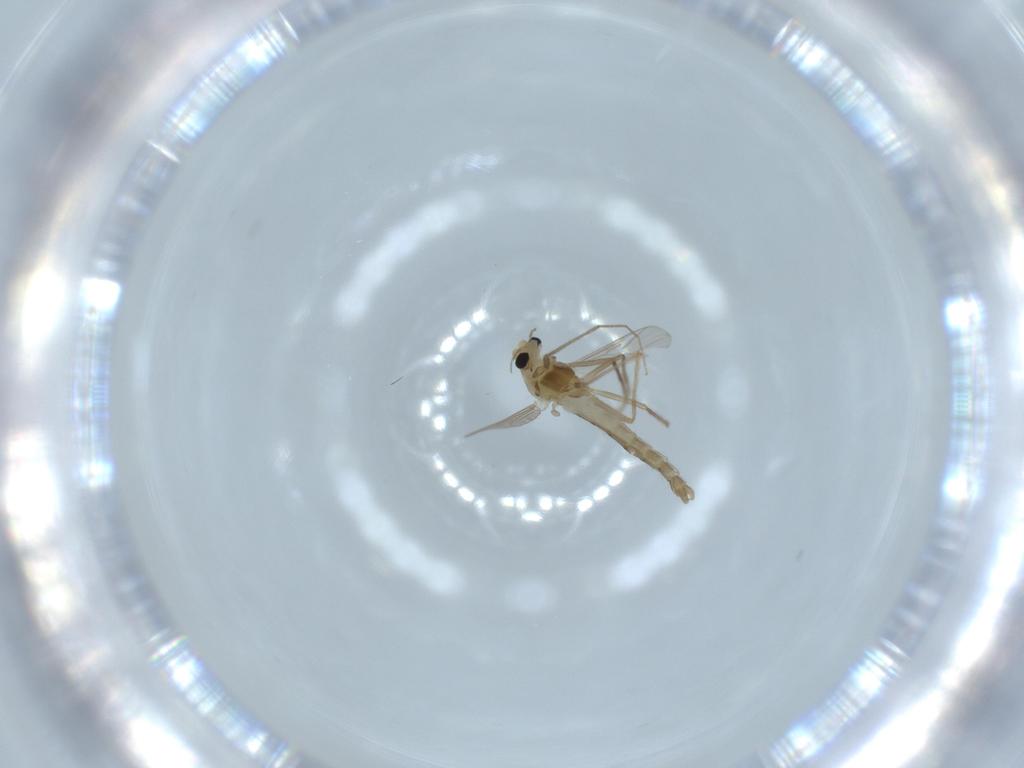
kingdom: Animalia
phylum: Arthropoda
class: Insecta
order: Diptera
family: Chironomidae
